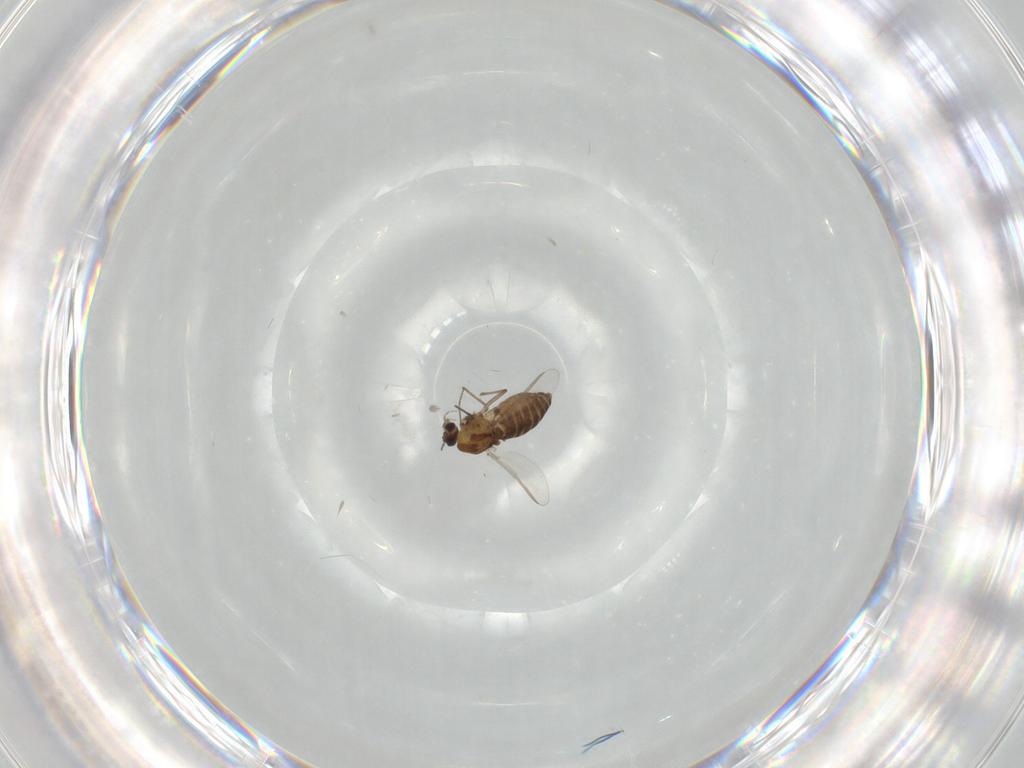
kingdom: Animalia
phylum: Arthropoda
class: Insecta
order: Diptera
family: Chironomidae
